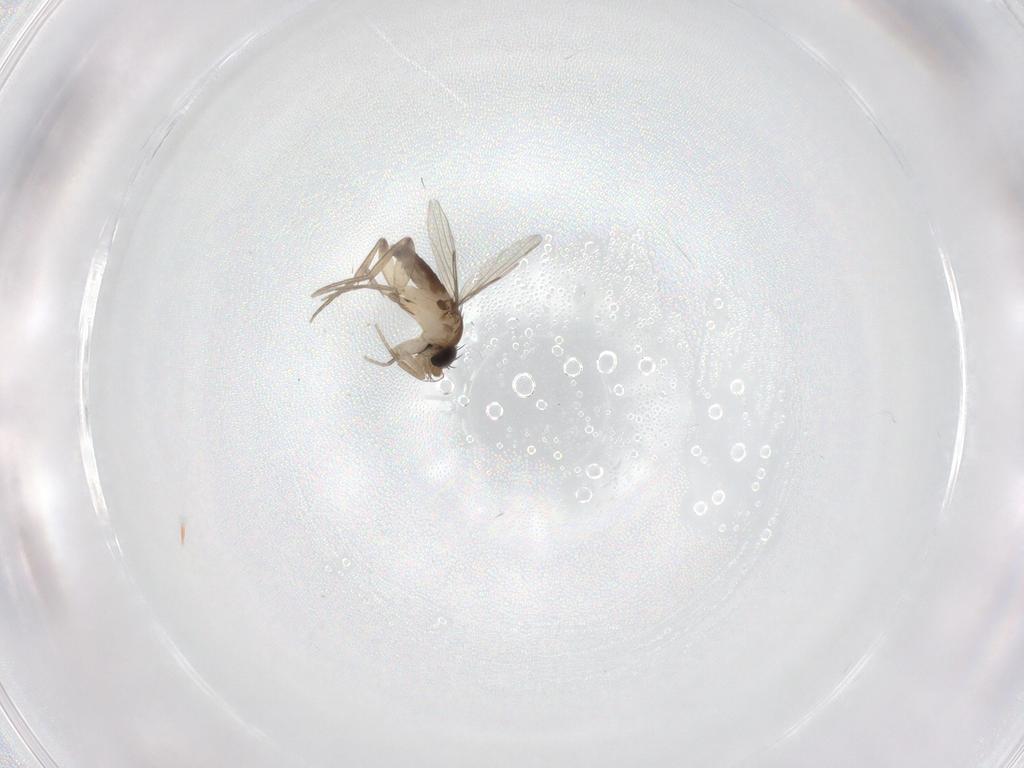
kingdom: Animalia
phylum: Arthropoda
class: Insecta
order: Diptera
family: Phoridae
